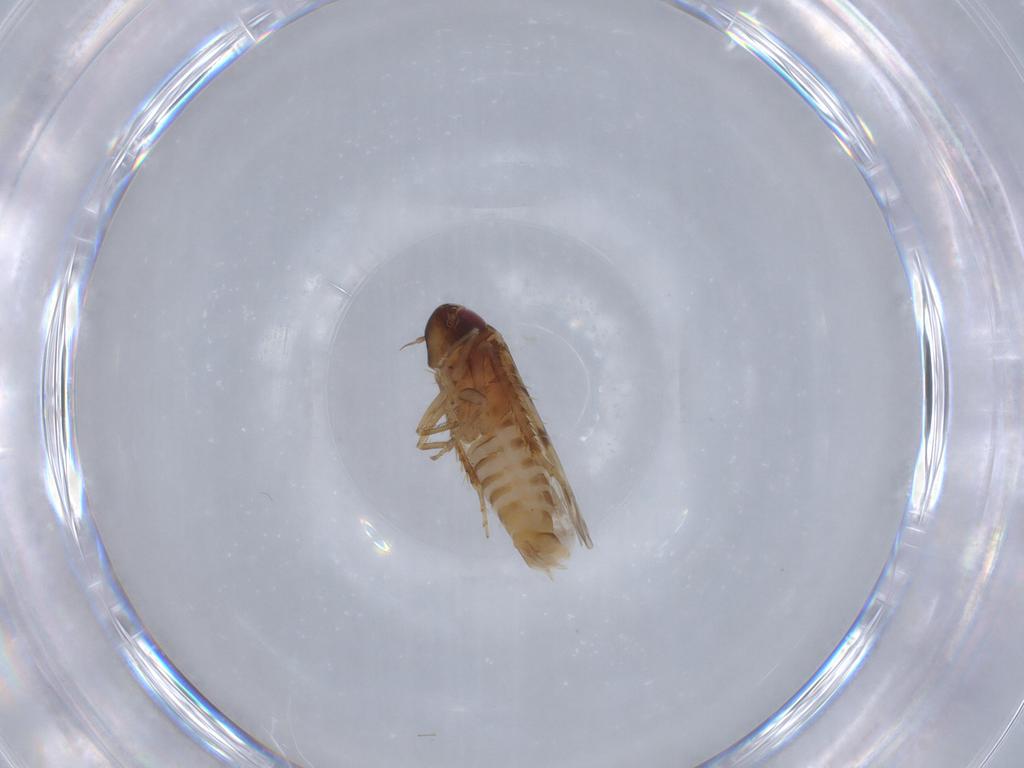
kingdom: Animalia
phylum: Arthropoda
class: Insecta
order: Hemiptera
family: Cicadellidae
